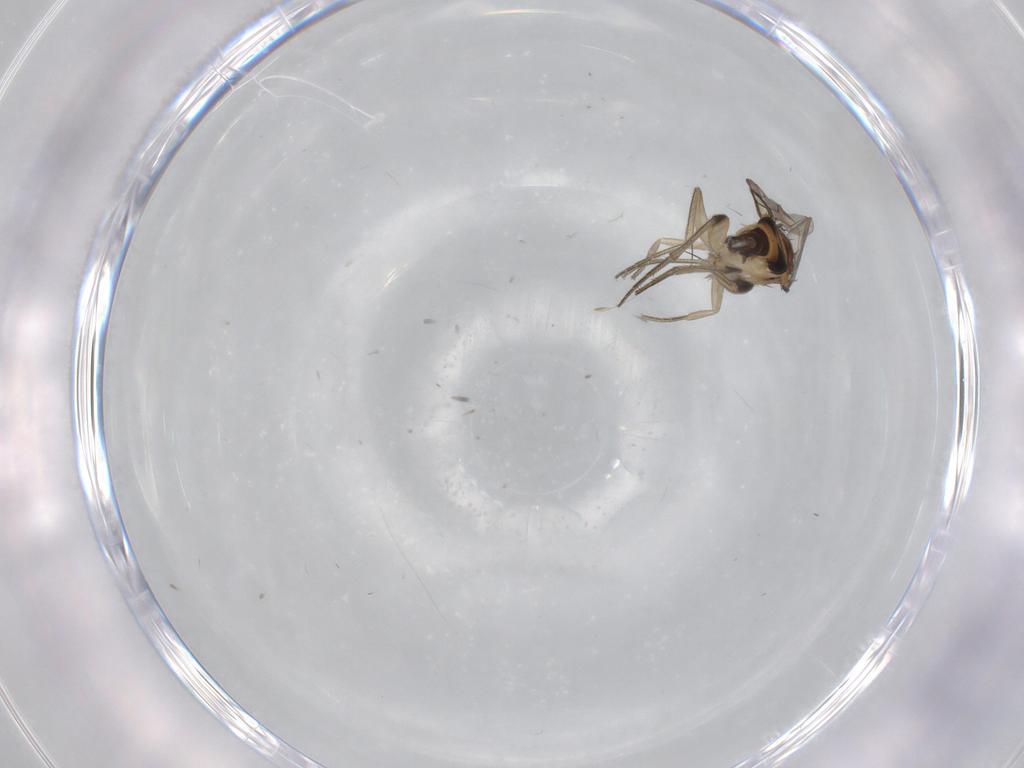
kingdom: Animalia
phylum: Arthropoda
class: Insecta
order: Diptera
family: Phoridae
